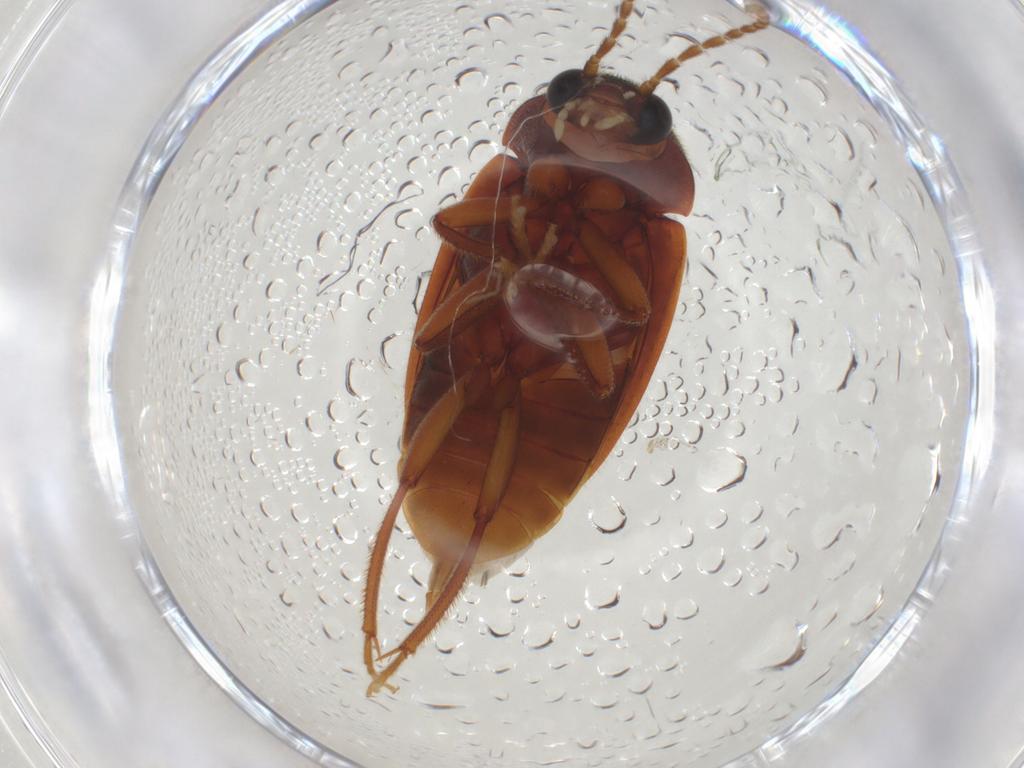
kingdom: Animalia
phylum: Arthropoda
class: Insecta
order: Coleoptera
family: Ptilodactylidae
